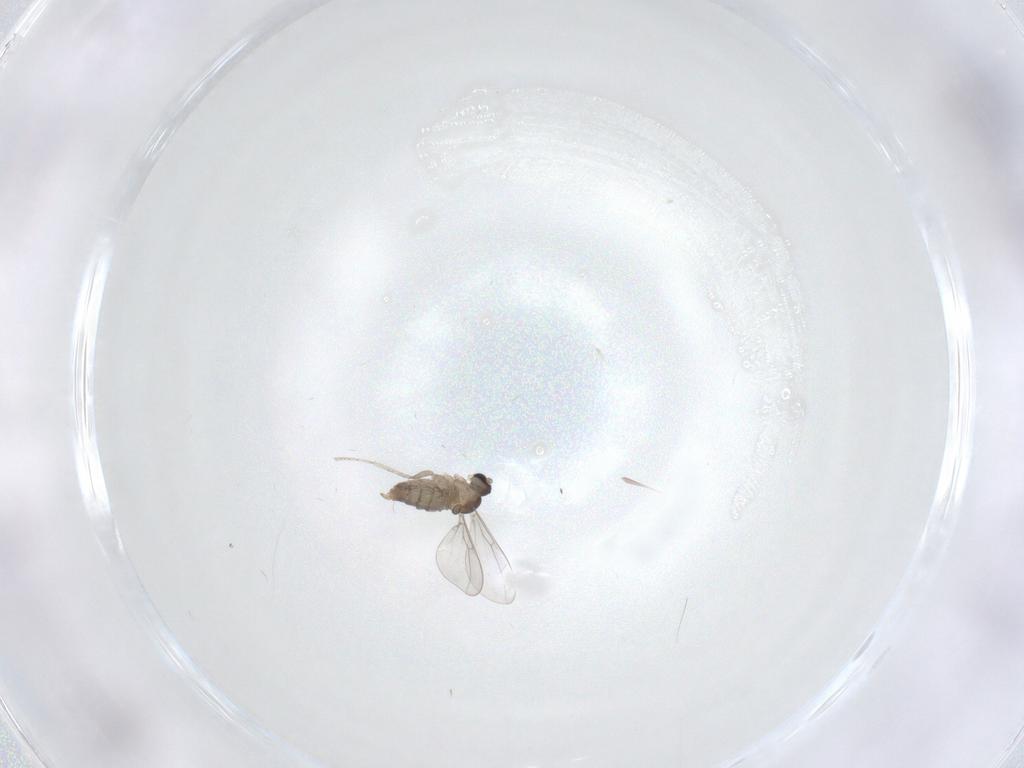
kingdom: Animalia
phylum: Arthropoda
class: Insecta
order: Diptera
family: Cecidomyiidae
